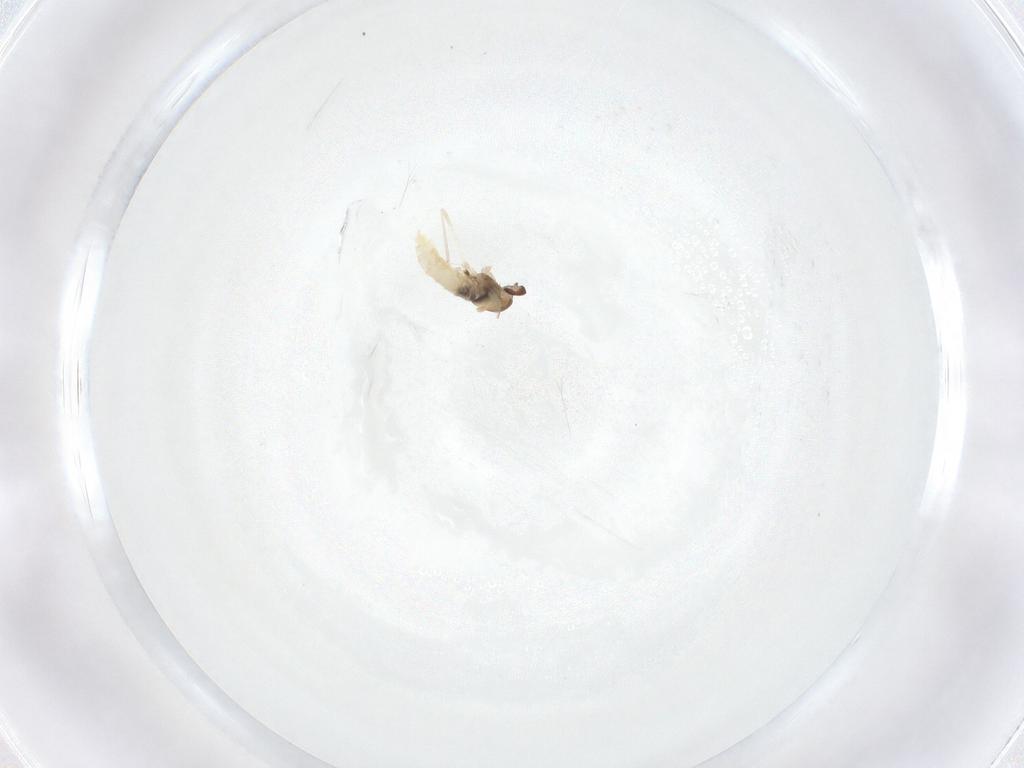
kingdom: Animalia
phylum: Arthropoda
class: Insecta
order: Diptera
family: Cecidomyiidae
